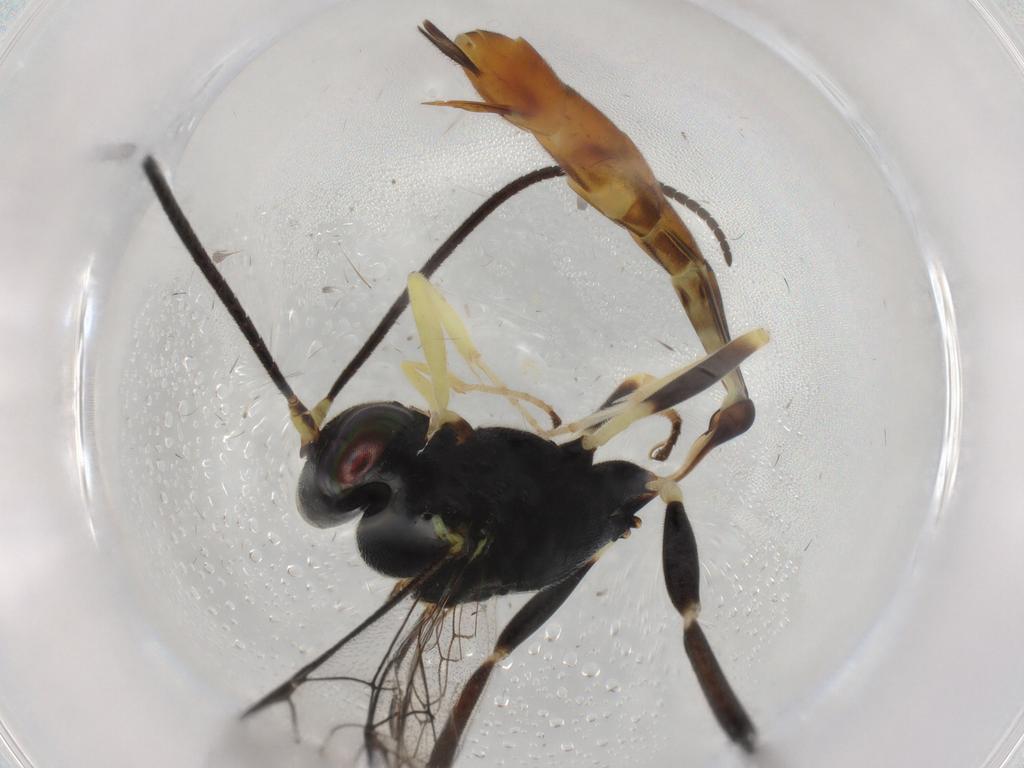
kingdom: Animalia
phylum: Arthropoda
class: Insecta
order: Hymenoptera
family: Ichneumonidae
